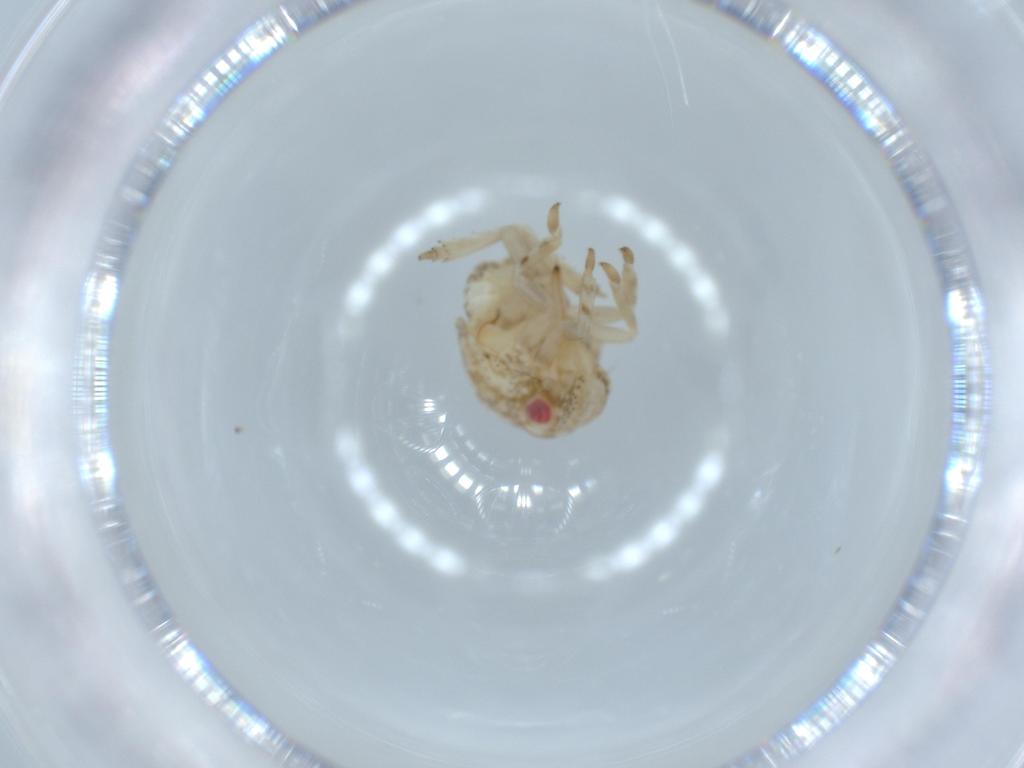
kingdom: Animalia
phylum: Arthropoda
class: Insecta
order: Hemiptera
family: Acanaloniidae
